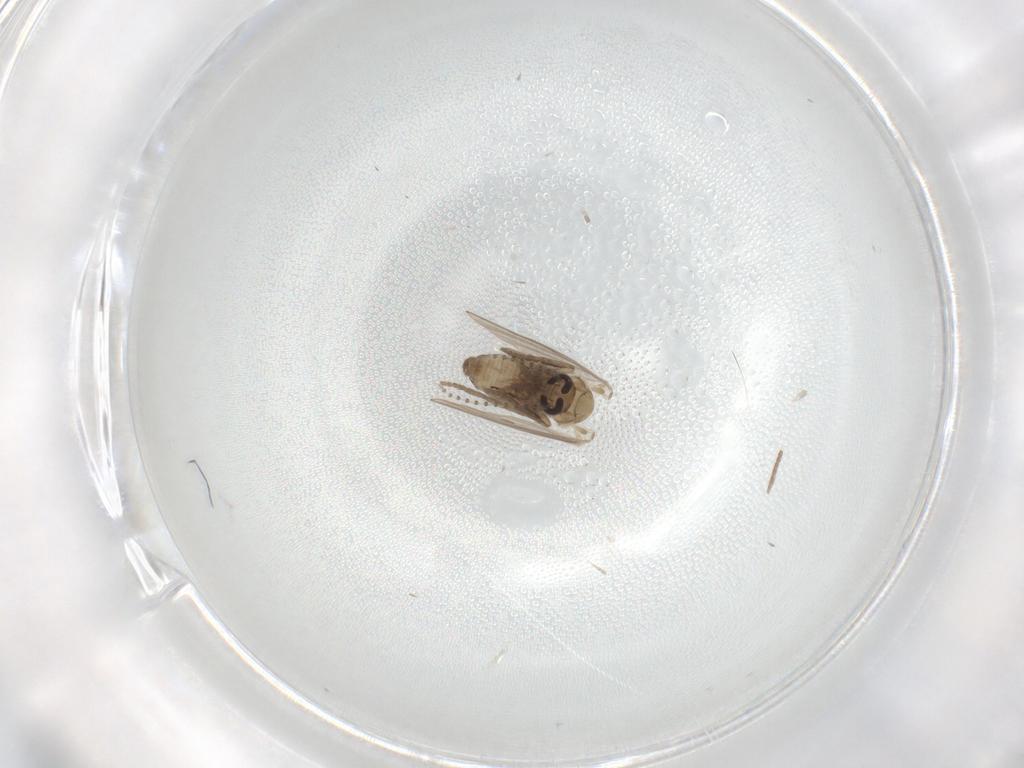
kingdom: Animalia
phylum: Arthropoda
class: Insecta
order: Diptera
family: Psychodidae
